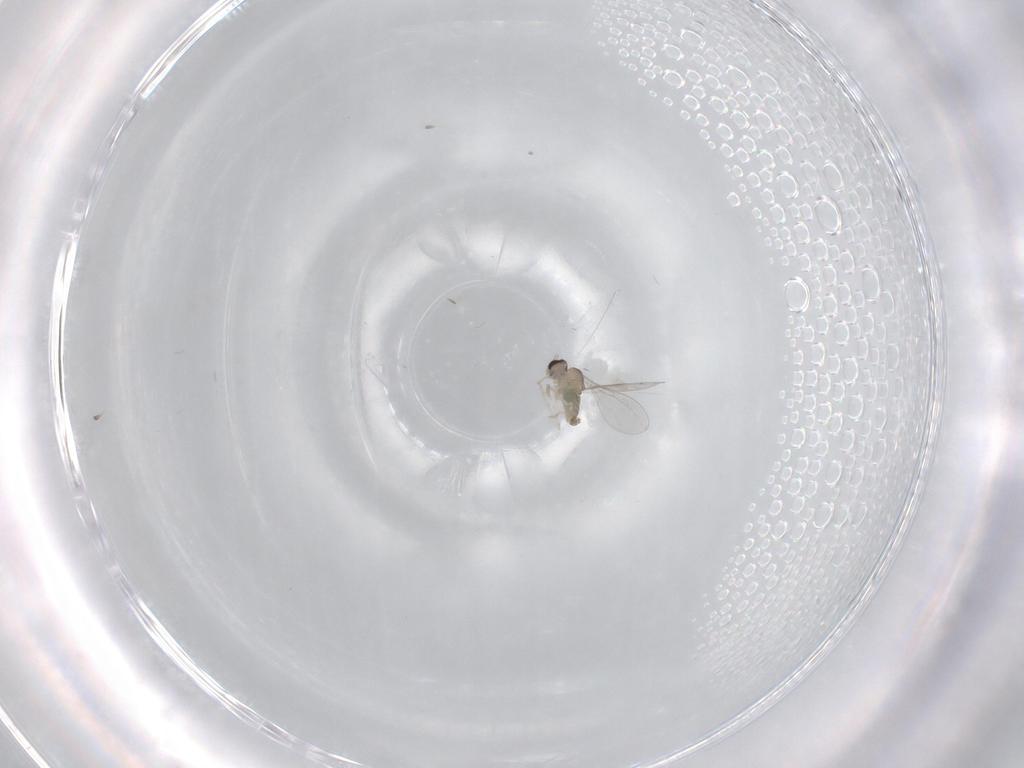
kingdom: Animalia
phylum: Arthropoda
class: Insecta
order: Diptera
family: Cecidomyiidae
